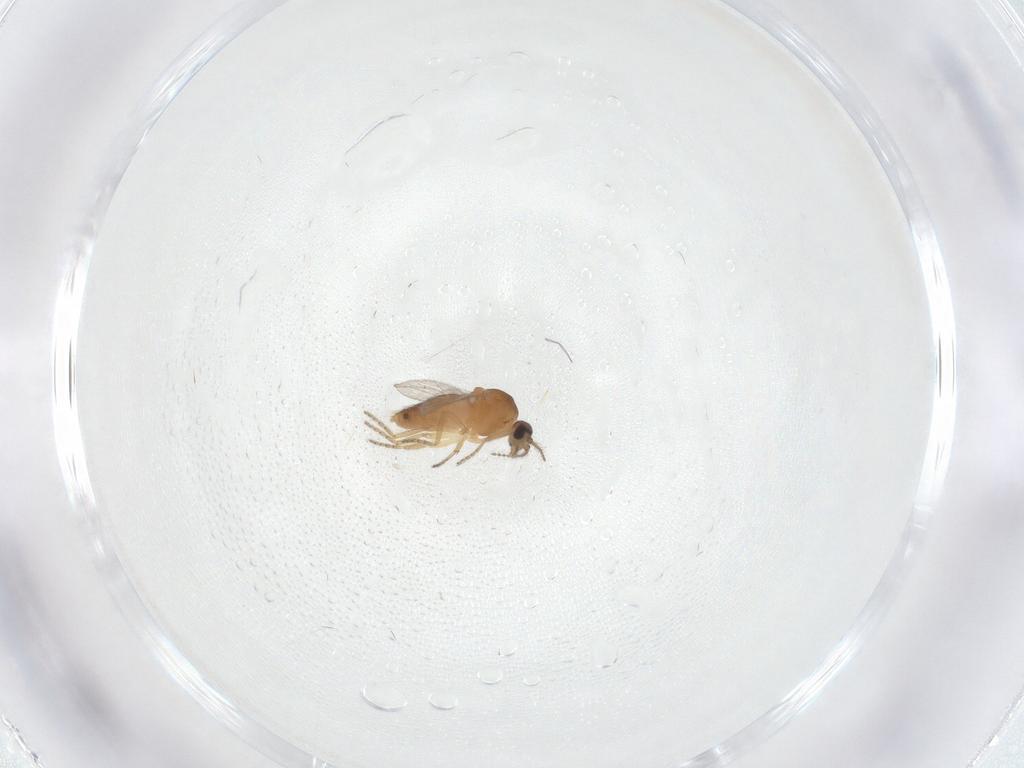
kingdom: Animalia
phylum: Arthropoda
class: Insecta
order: Diptera
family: Ceratopogonidae
